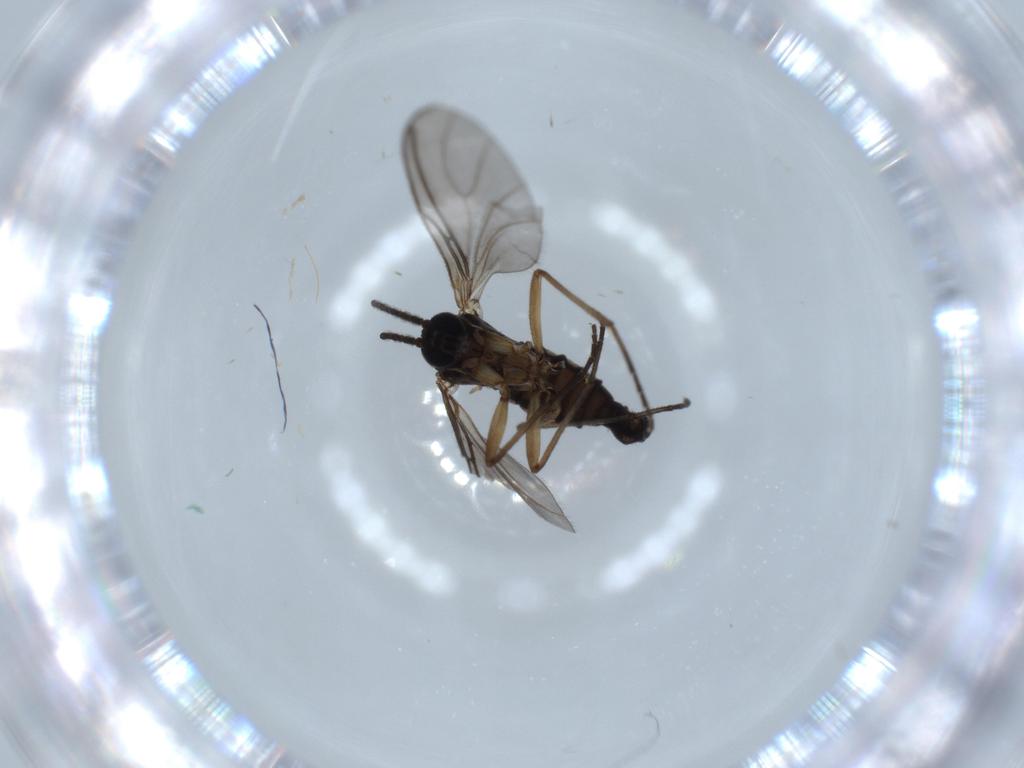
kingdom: Animalia
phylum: Arthropoda
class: Insecta
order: Diptera
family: Sciaridae
